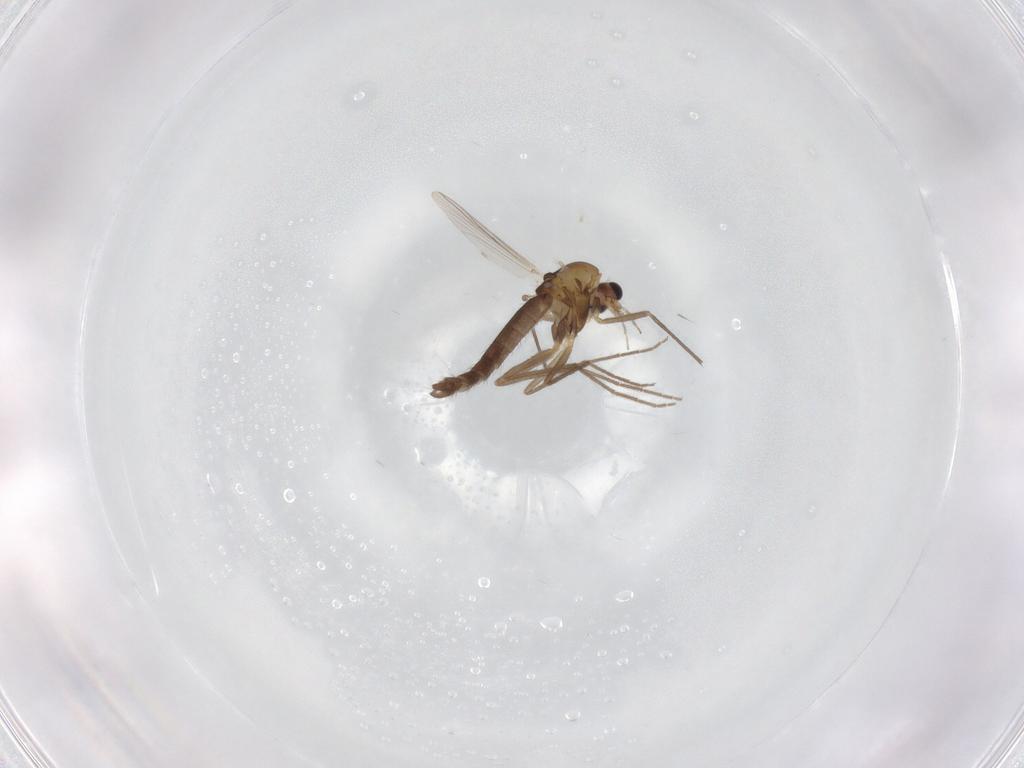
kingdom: Animalia
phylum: Arthropoda
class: Insecta
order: Diptera
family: Chironomidae
